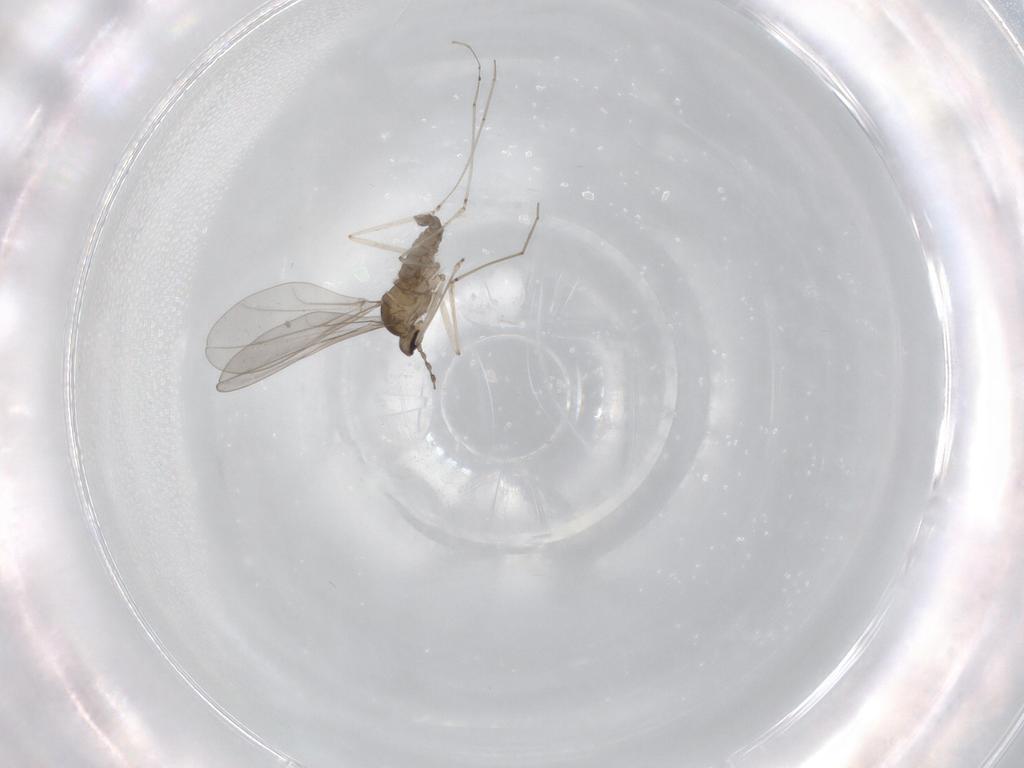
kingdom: Animalia
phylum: Arthropoda
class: Insecta
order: Diptera
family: Cecidomyiidae
